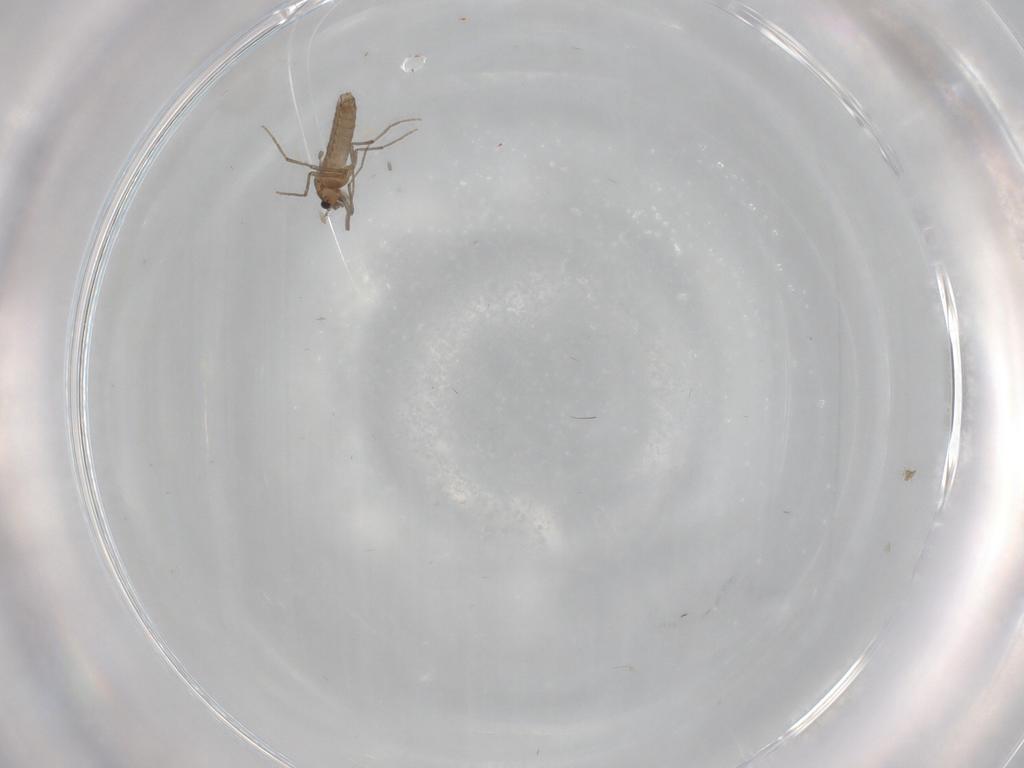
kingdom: Animalia
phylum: Arthropoda
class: Insecta
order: Diptera
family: Chironomidae
